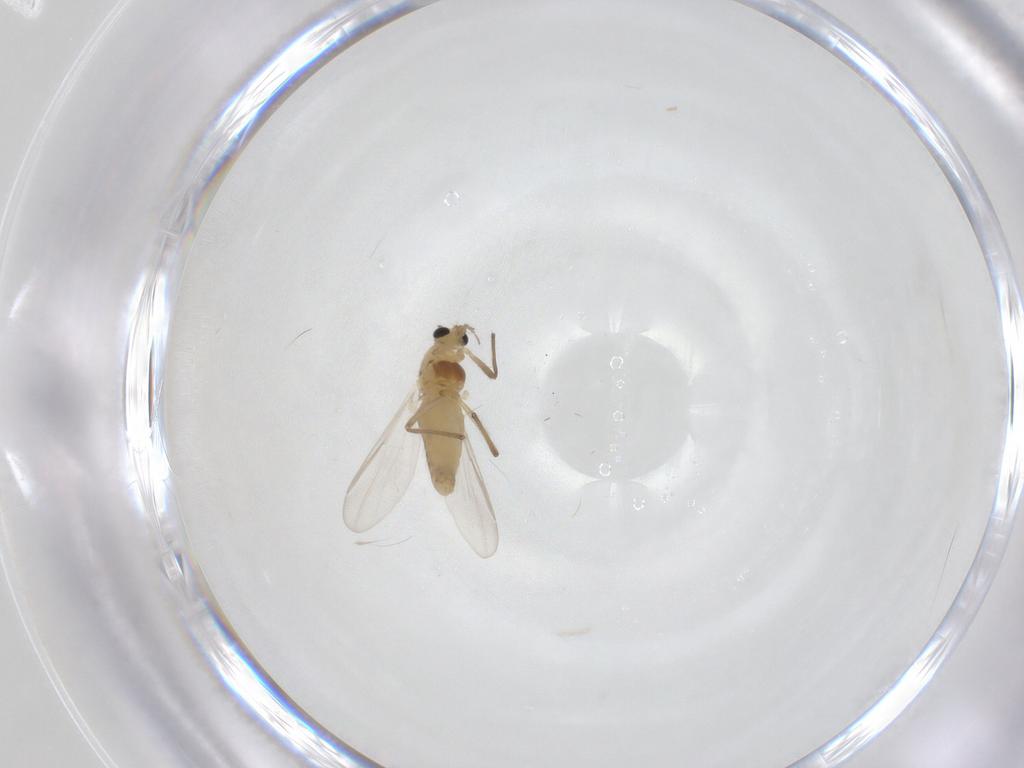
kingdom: Animalia
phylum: Arthropoda
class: Insecta
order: Diptera
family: Chironomidae
